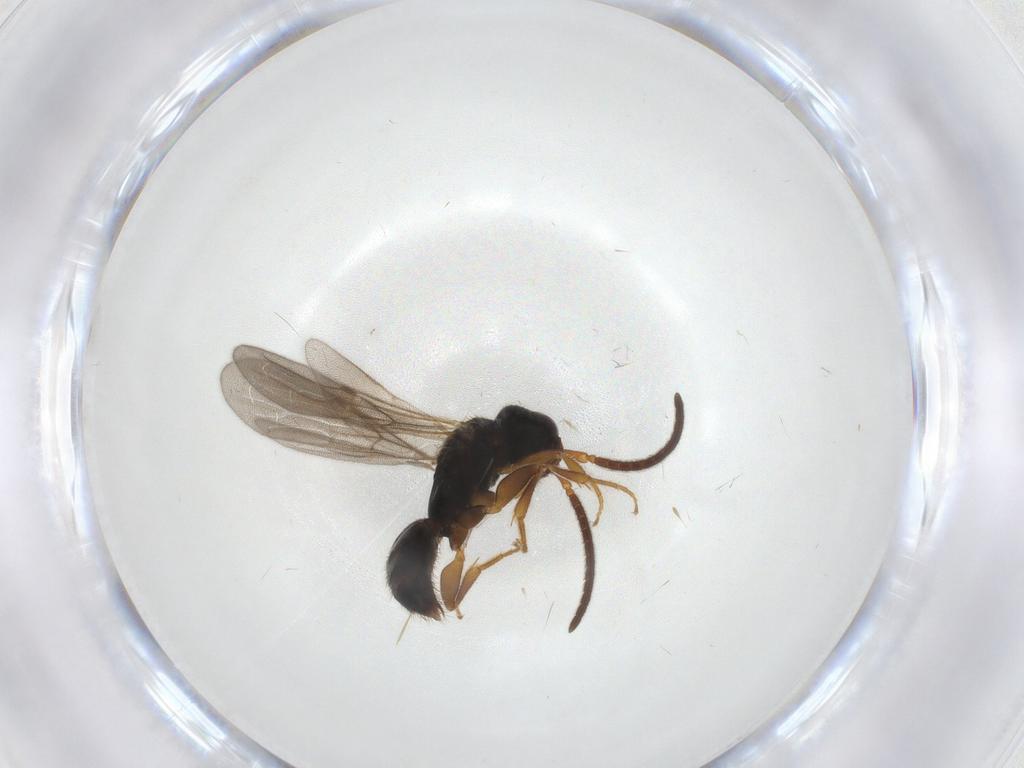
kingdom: Animalia
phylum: Arthropoda
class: Insecta
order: Hymenoptera
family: Bethylidae
